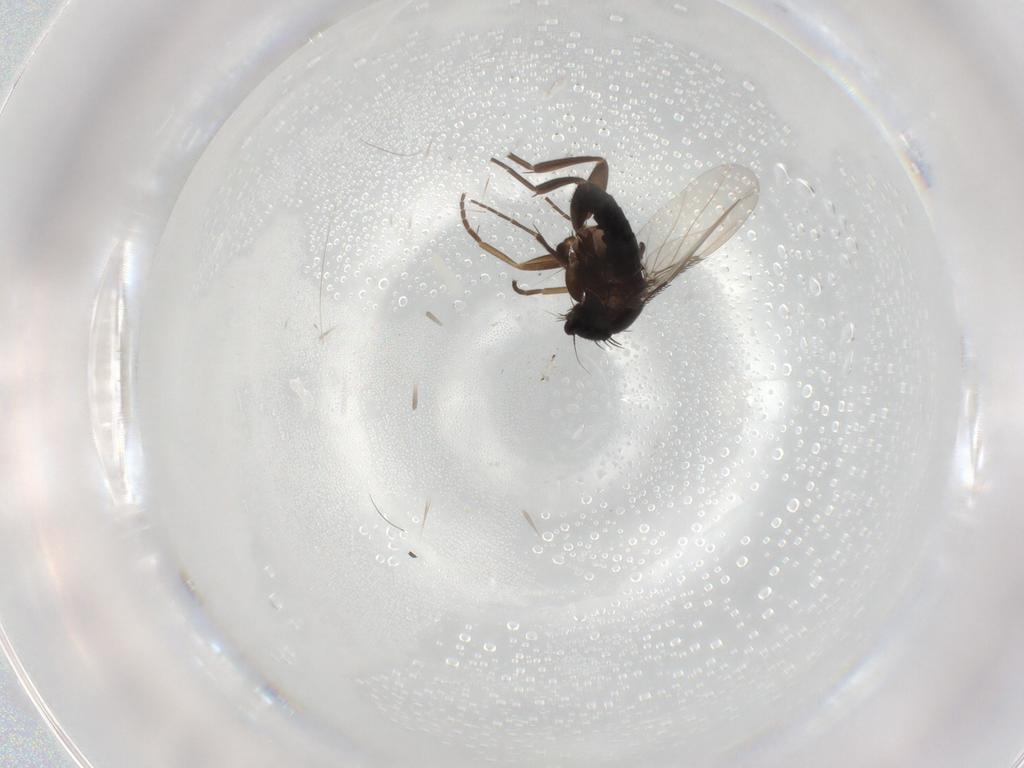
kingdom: Animalia
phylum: Arthropoda
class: Insecta
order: Diptera
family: Phoridae
